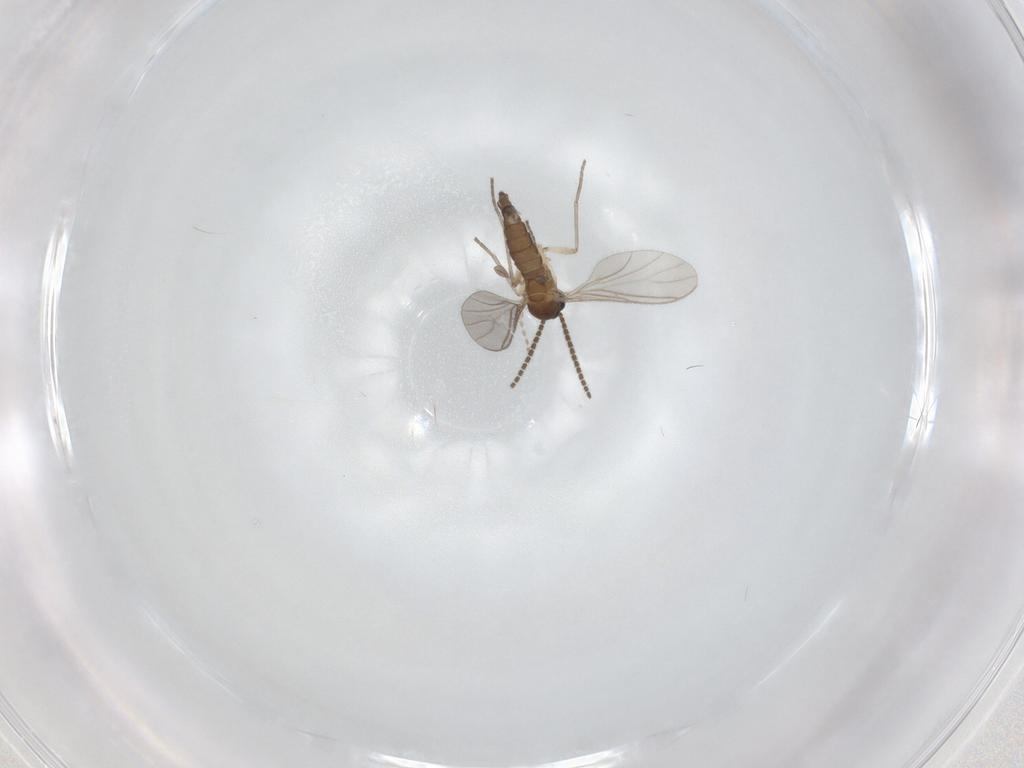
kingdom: Animalia
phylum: Arthropoda
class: Insecta
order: Diptera
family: Sciaridae
